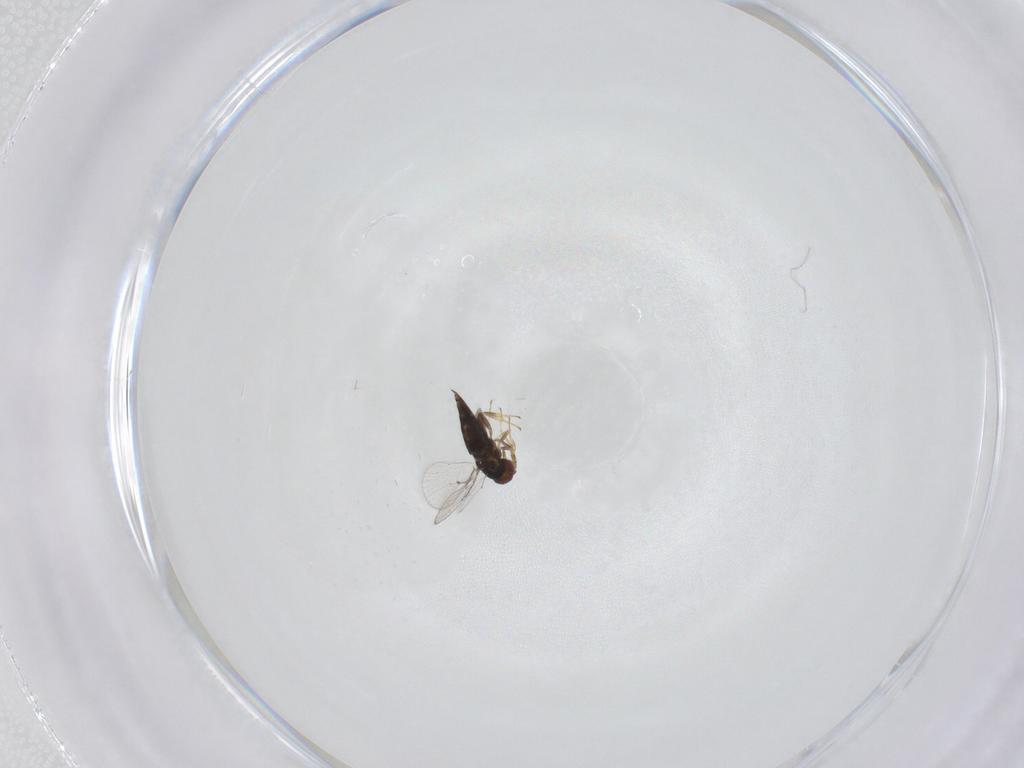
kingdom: Animalia
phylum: Arthropoda
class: Insecta
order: Hymenoptera
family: Trichogrammatidae
